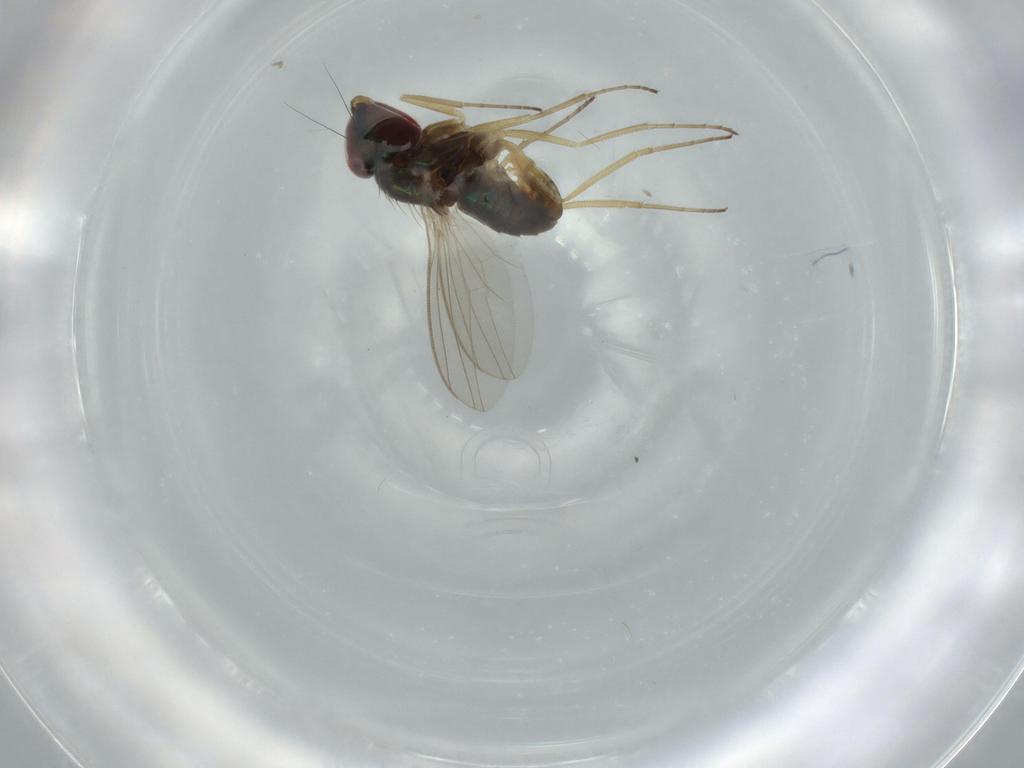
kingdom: Animalia
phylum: Arthropoda
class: Insecta
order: Diptera
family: Dolichopodidae
